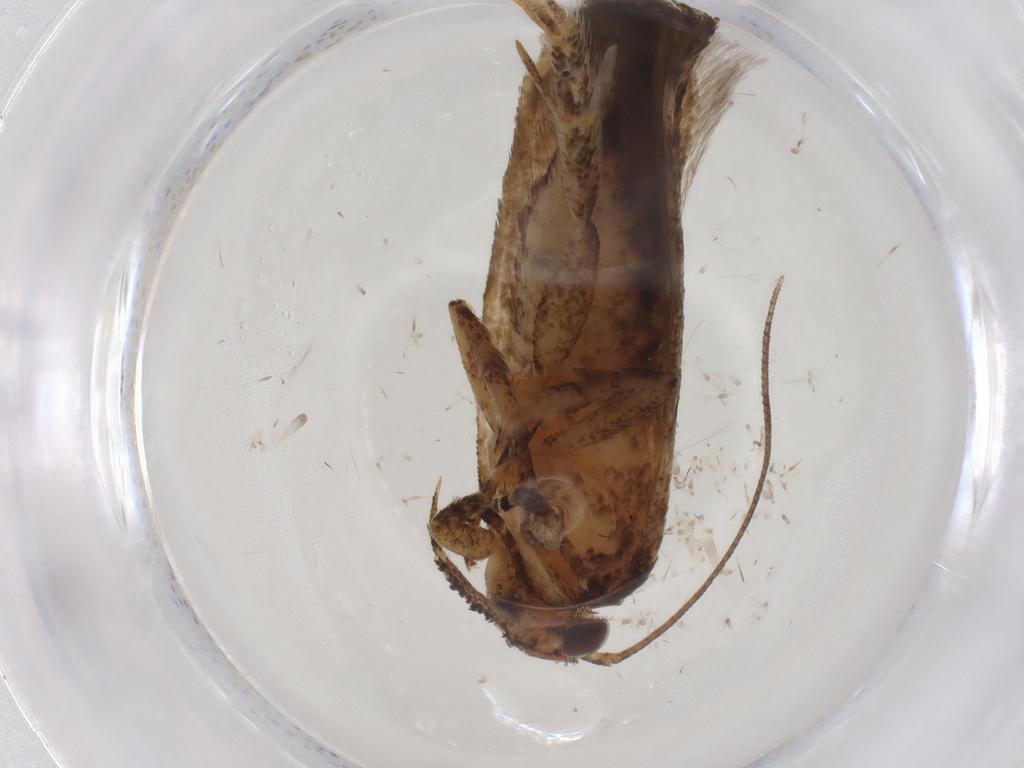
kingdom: Animalia
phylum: Arthropoda
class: Insecta
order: Lepidoptera
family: Gelechiidae
